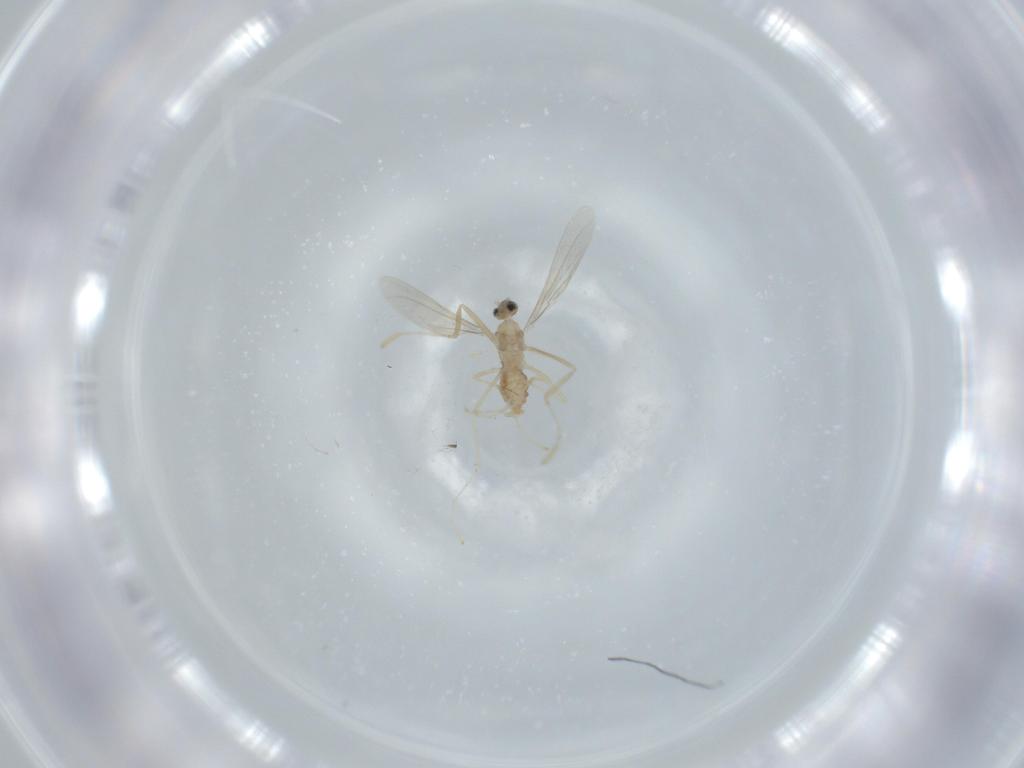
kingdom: Animalia
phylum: Arthropoda
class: Insecta
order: Diptera
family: Cecidomyiidae
